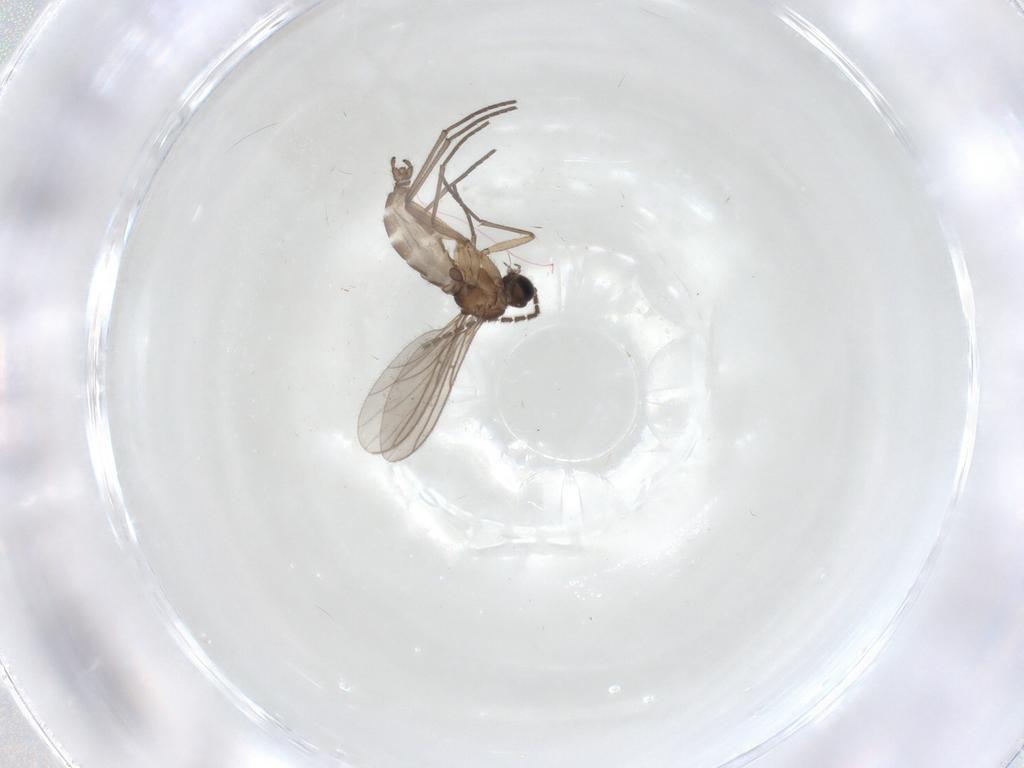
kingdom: Animalia
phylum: Arthropoda
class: Insecta
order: Diptera
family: Sciaridae
